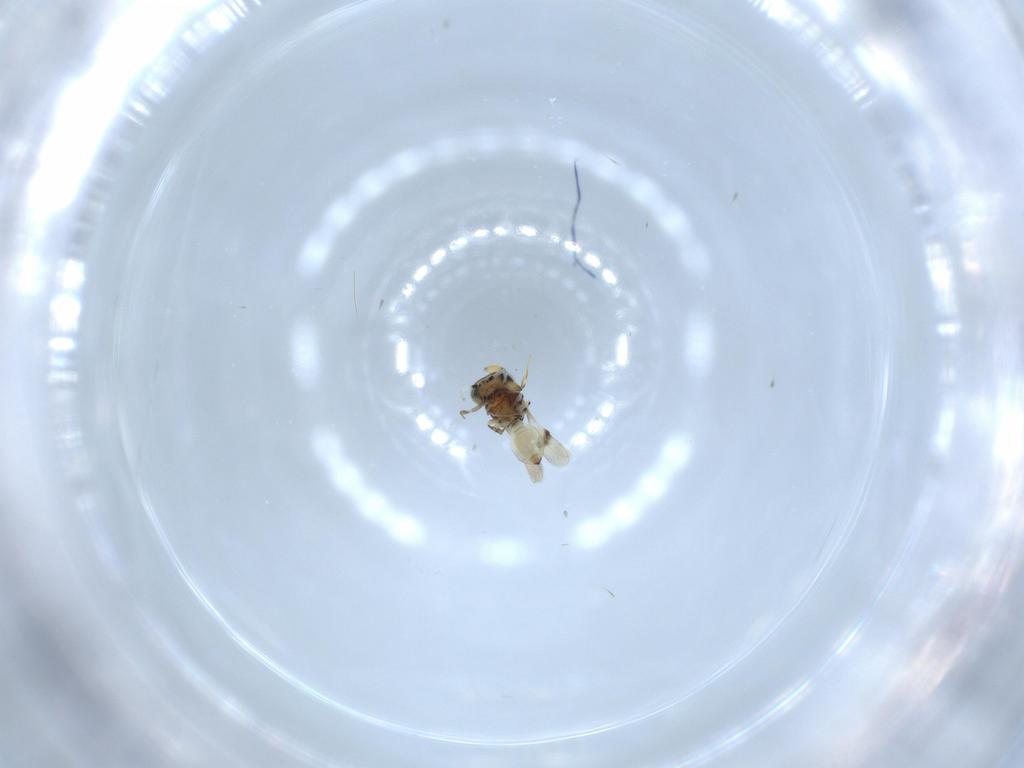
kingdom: Animalia
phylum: Arthropoda
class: Insecta
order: Hymenoptera
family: Scelionidae
